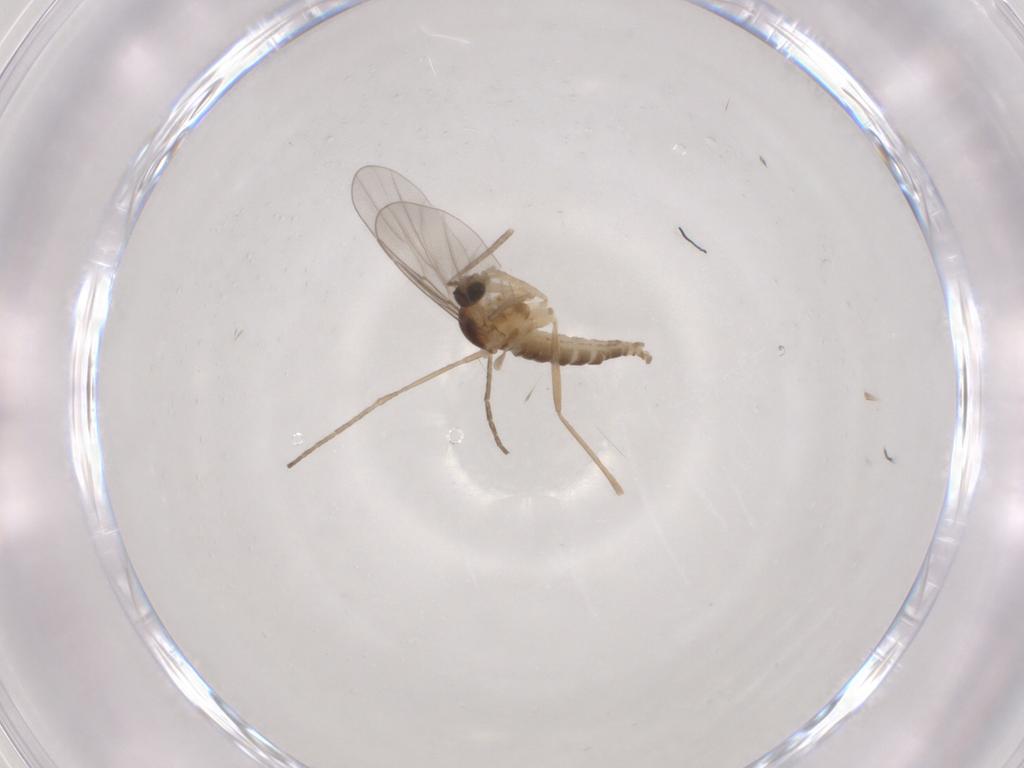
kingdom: Animalia
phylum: Arthropoda
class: Insecta
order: Diptera
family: Cecidomyiidae
